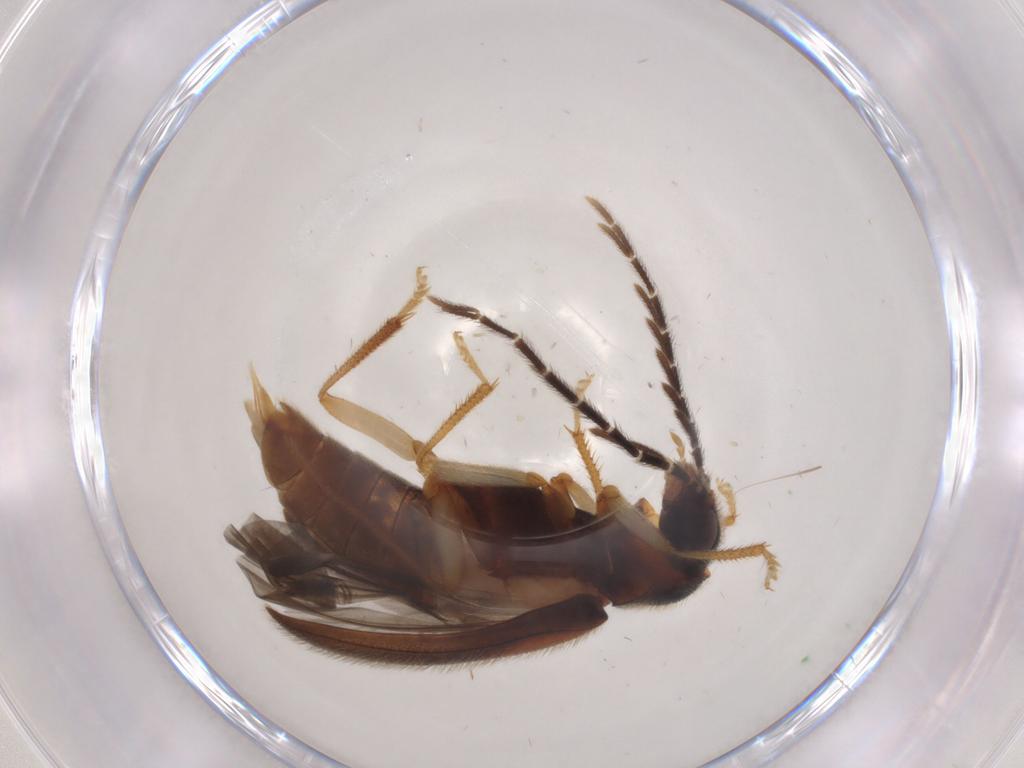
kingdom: Animalia
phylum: Arthropoda
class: Insecta
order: Coleoptera
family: Ptilodactylidae
